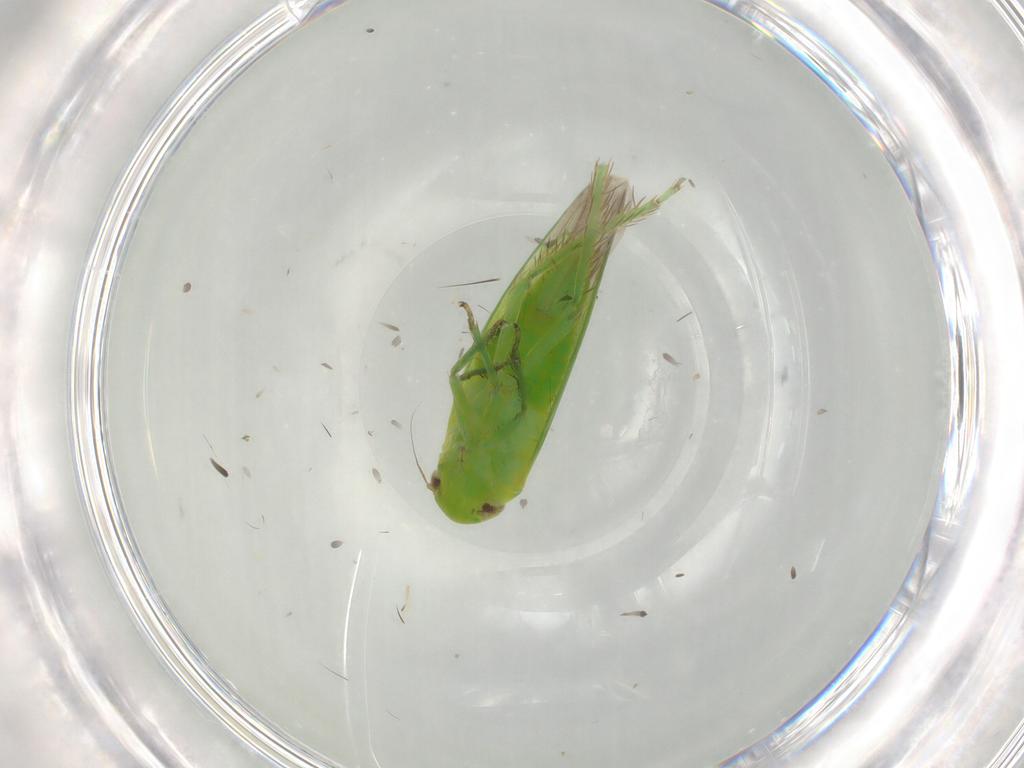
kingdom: Animalia
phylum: Arthropoda
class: Insecta
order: Hemiptera
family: Cicadellidae
